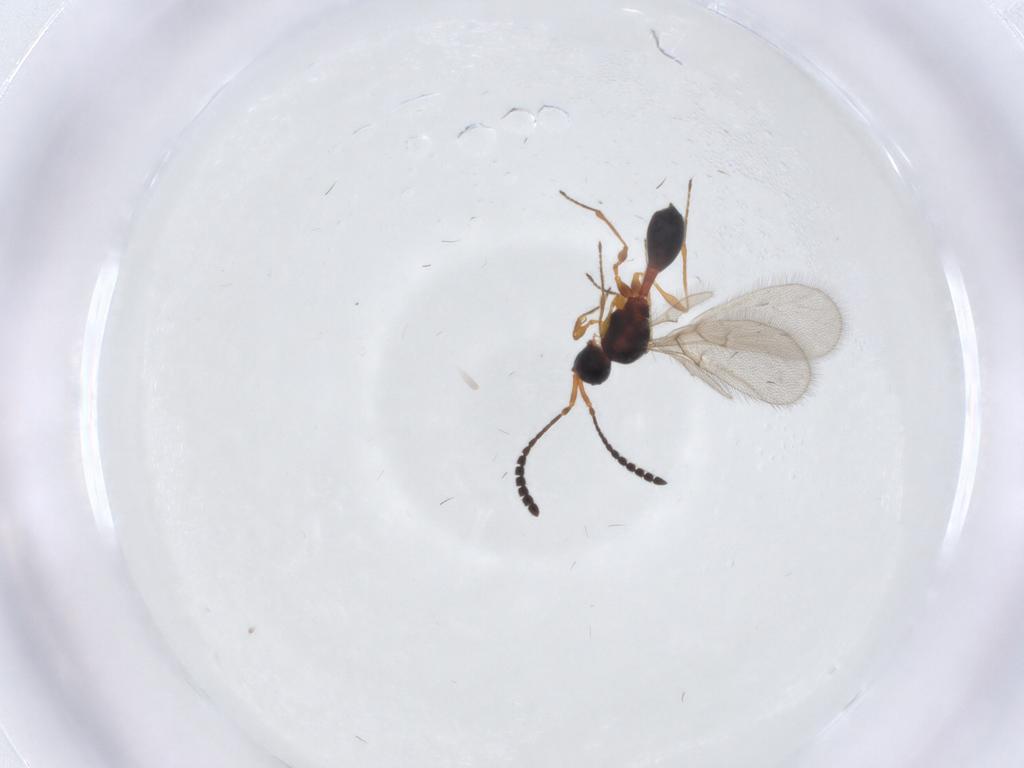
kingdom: Animalia
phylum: Arthropoda
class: Insecta
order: Hymenoptera
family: Diapriidae
